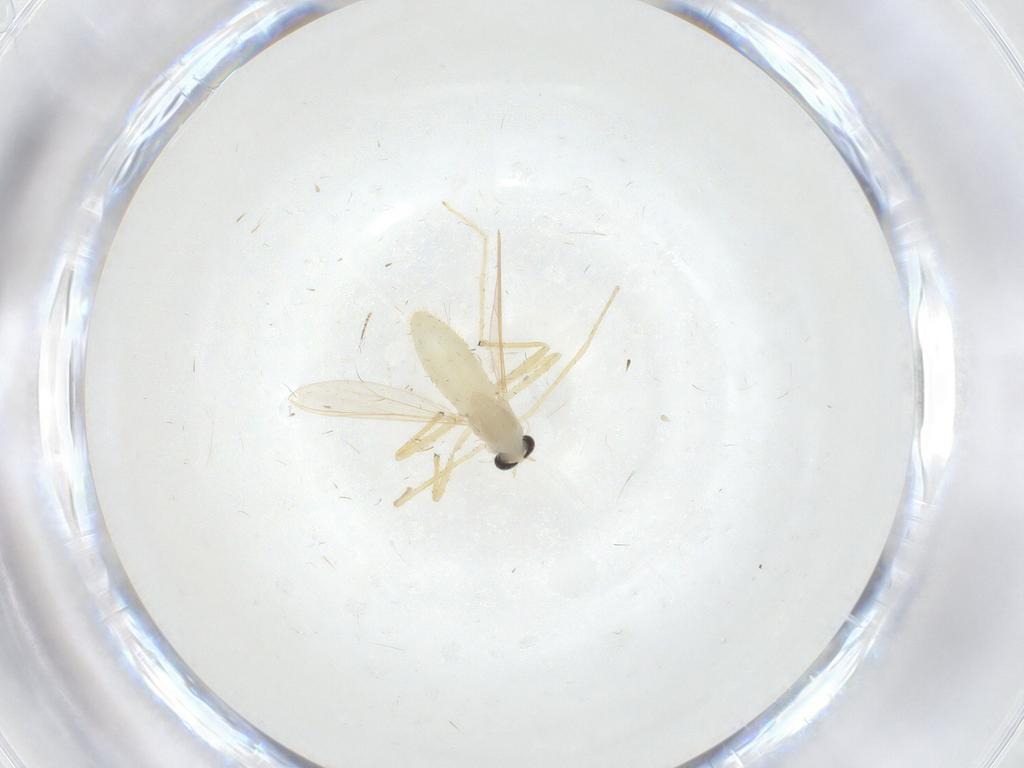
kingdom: Animalia
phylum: Arthropoda
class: Insecta
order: Diptera
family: Chironomidae
